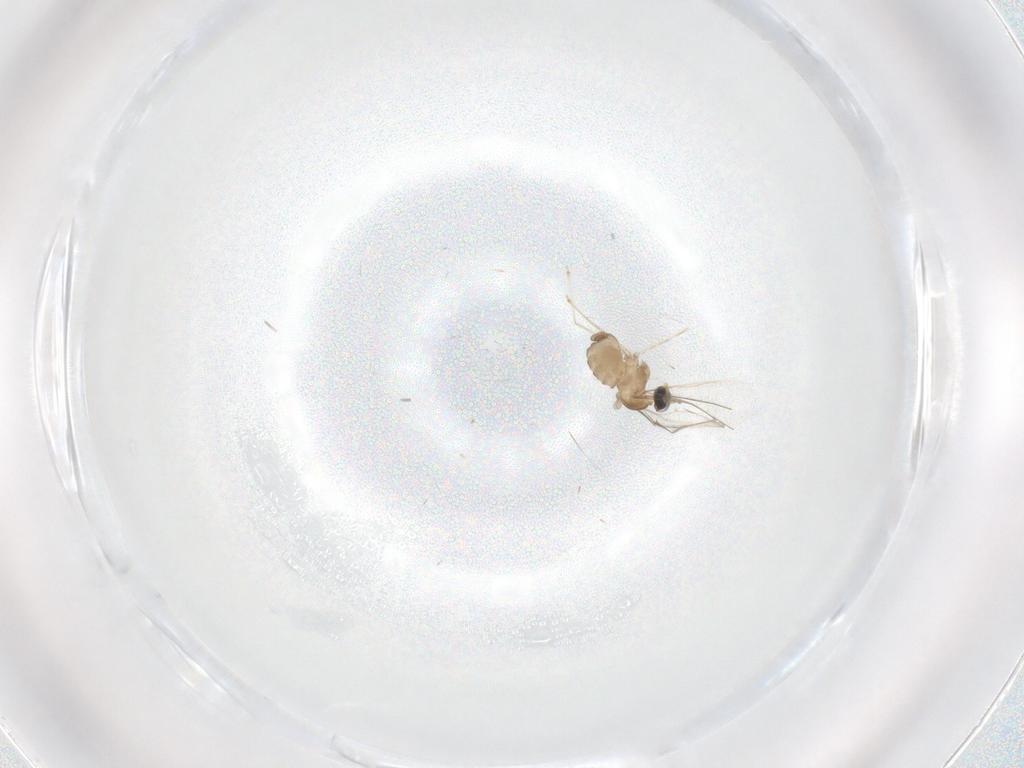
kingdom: Animalia
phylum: Arthropoda
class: Insecta
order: Diptera
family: Cecidomyiidae
